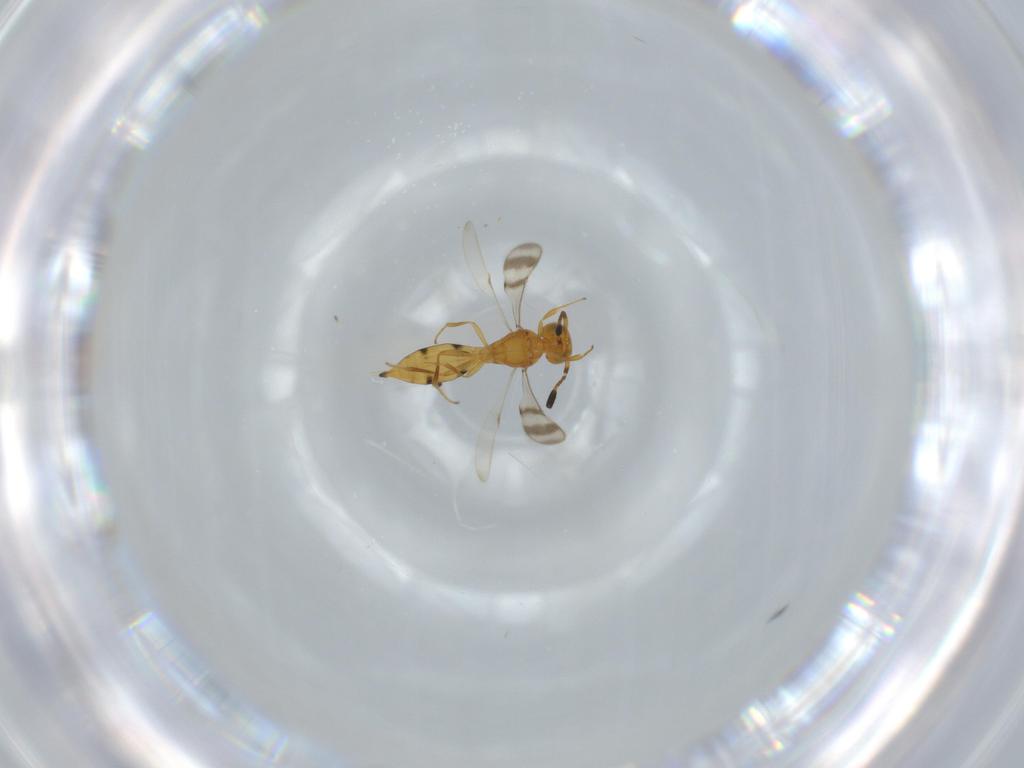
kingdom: Animalia
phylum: Arthropoda
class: Insecta
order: Hymenoptera
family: Scelionidae
